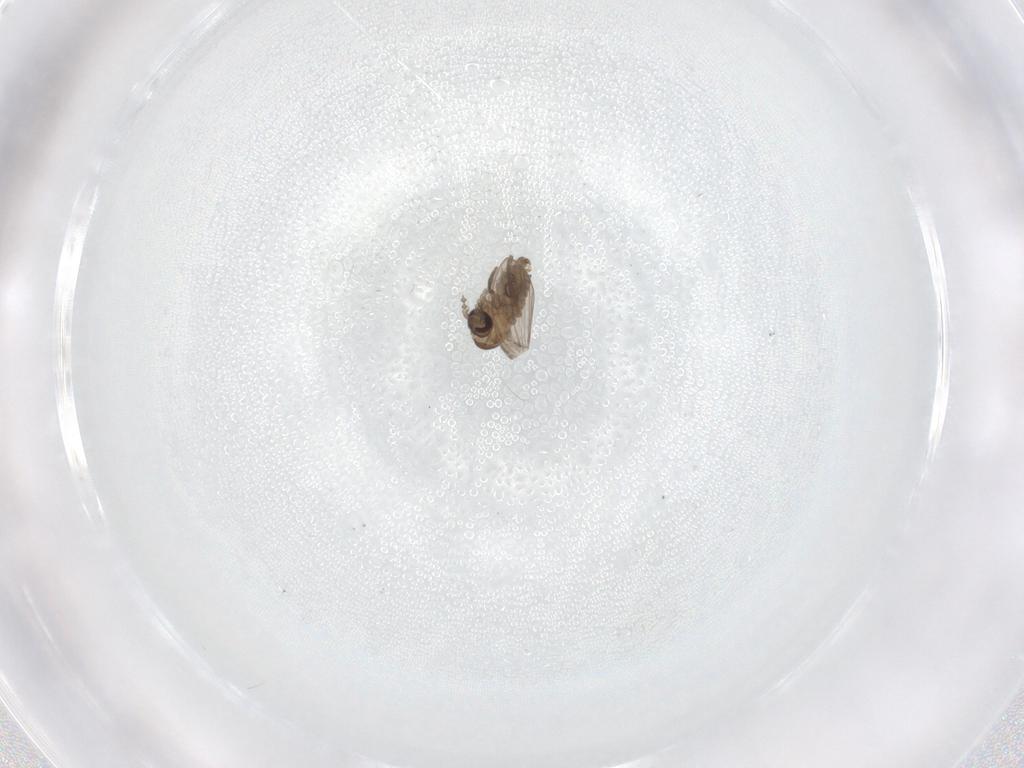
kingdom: Animalia
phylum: Arthropoda
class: Insecta
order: Diptera
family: Psychodidae
